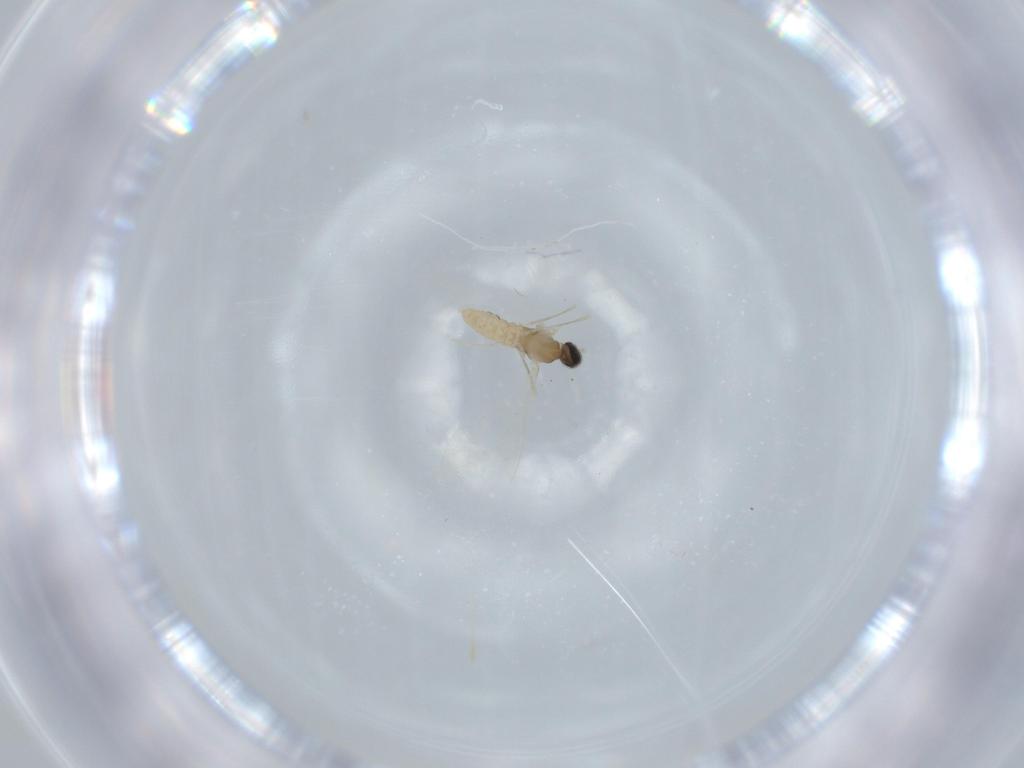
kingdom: Animalia
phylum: Arthropoda
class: Insecta
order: Diptera
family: Cecidomyiidae
